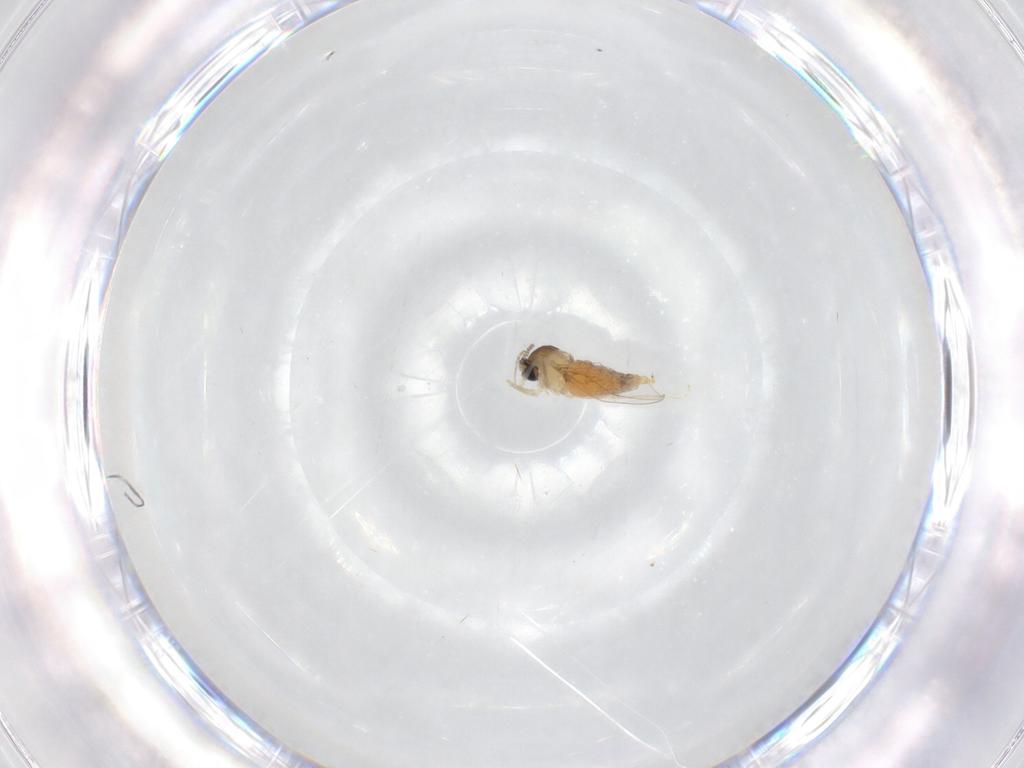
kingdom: Animalia
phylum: Arthropoda
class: Insecta
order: Diptera
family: Cecidomyiidae
